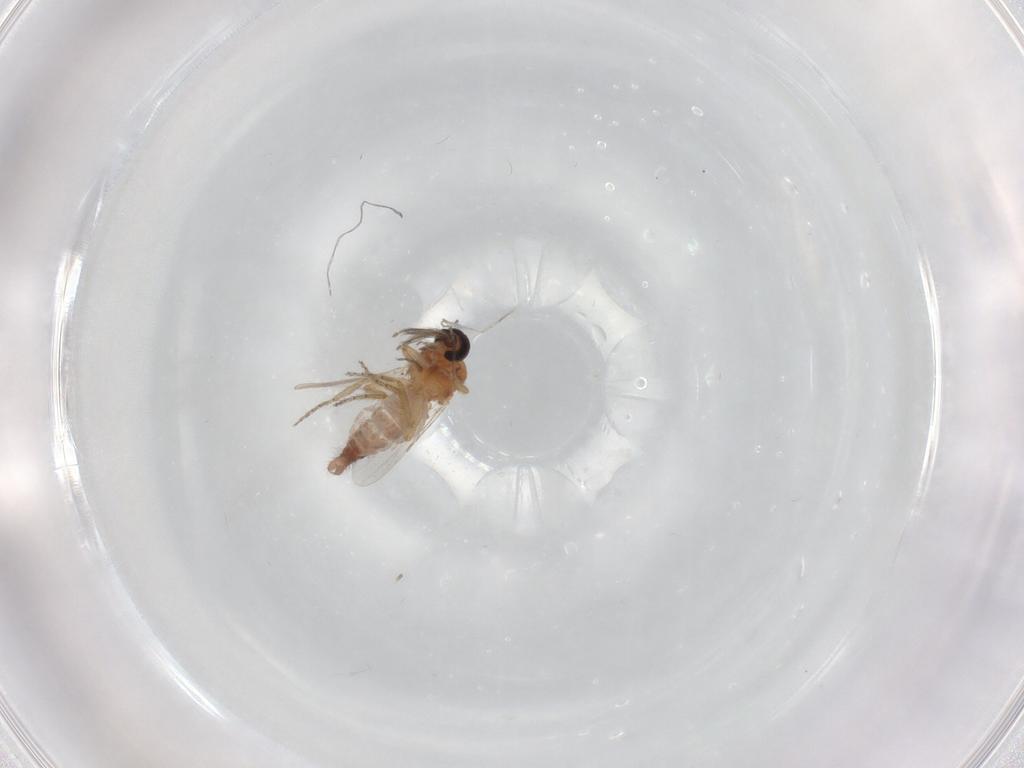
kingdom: Animalia
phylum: Arthropoda
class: Insecta
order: Diptera
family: Ceratopogonidae
